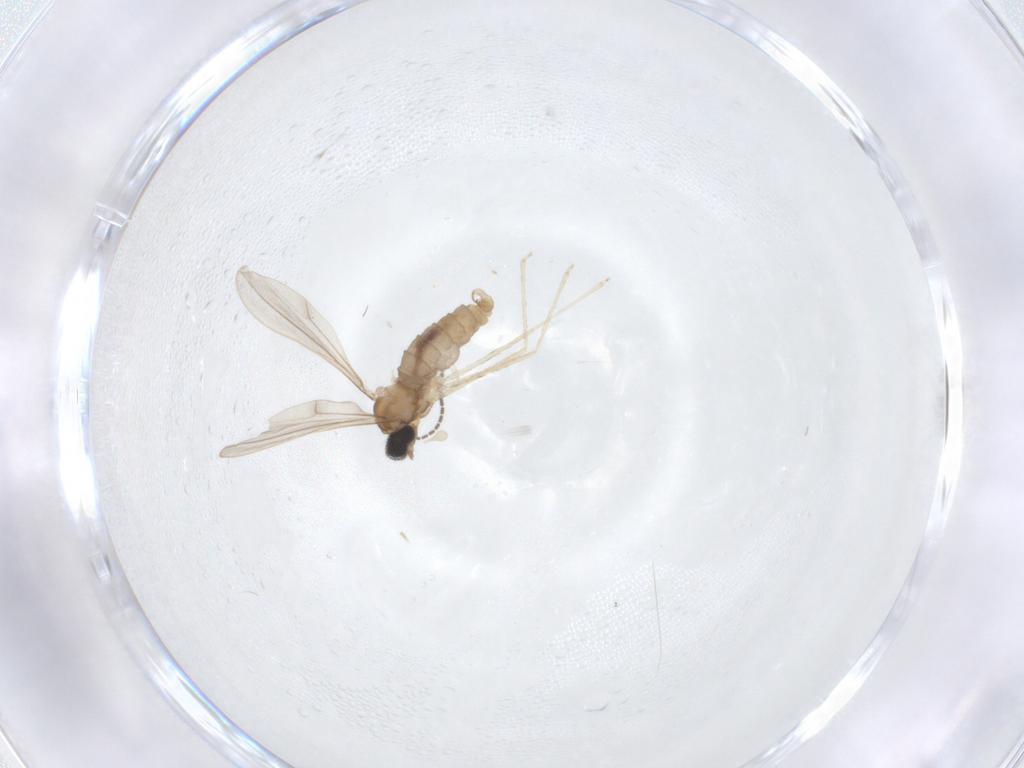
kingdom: Animalia
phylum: Arthropoda
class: Insecta
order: Diptera
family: Cecidomyiidae
